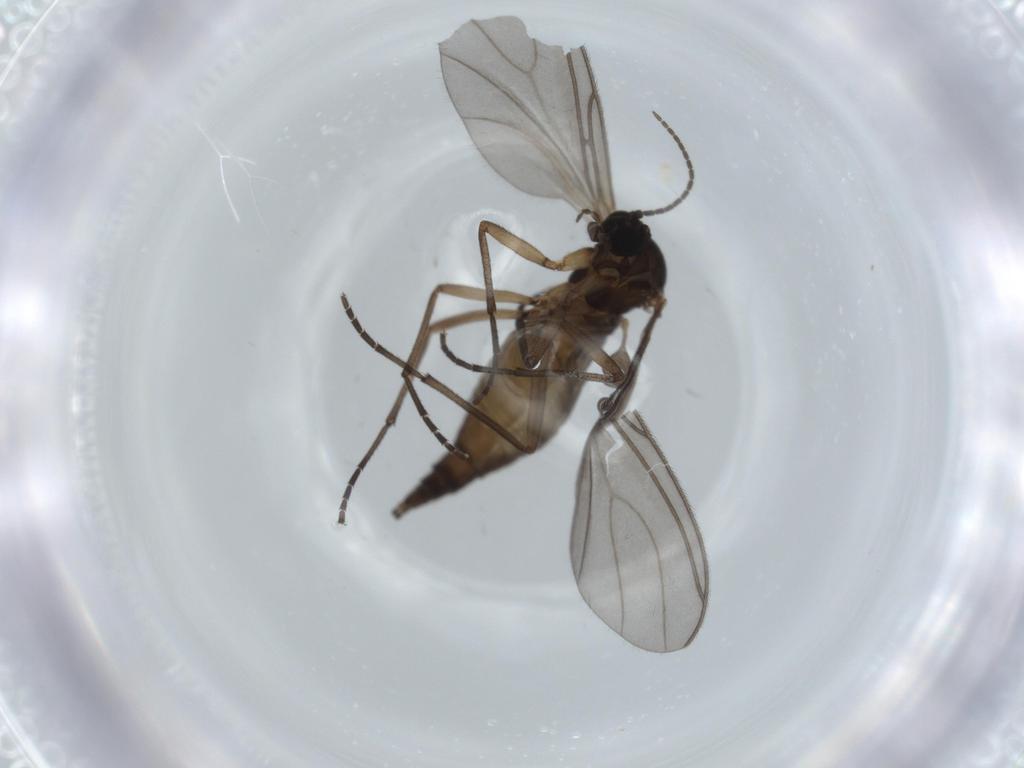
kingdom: Animalia
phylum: Arthropoda
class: Insecta
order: Diptera
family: Sciaridae
